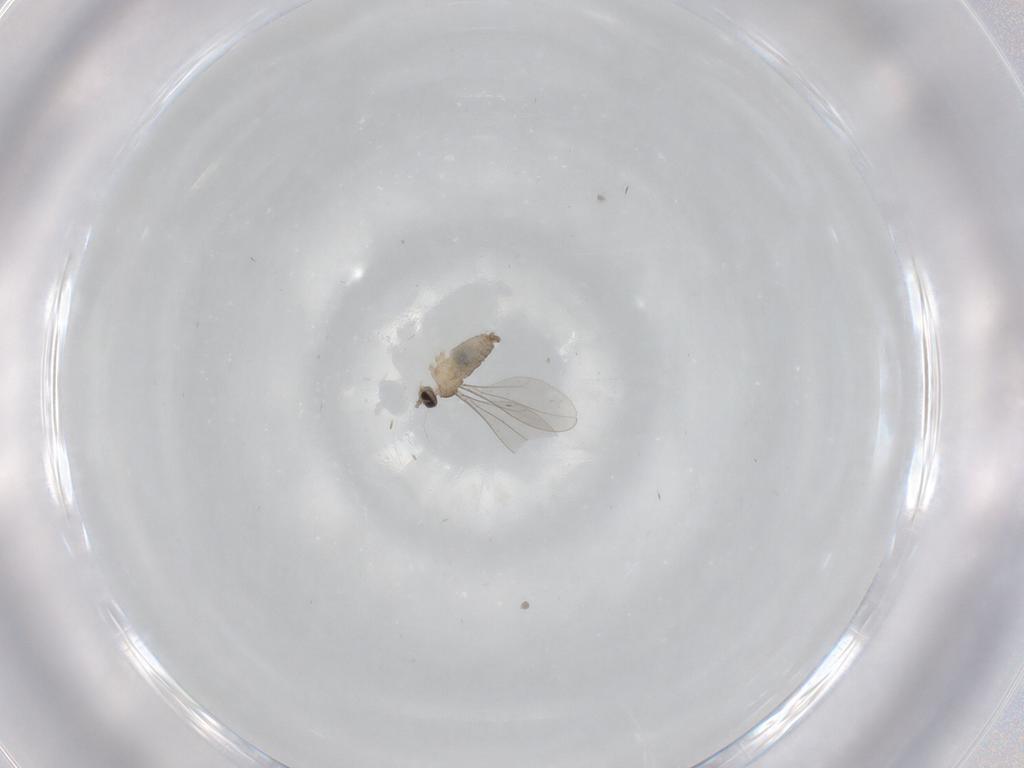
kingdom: Animalia
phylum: Arthropoda
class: Insecta
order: Diptera
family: Phoridae
